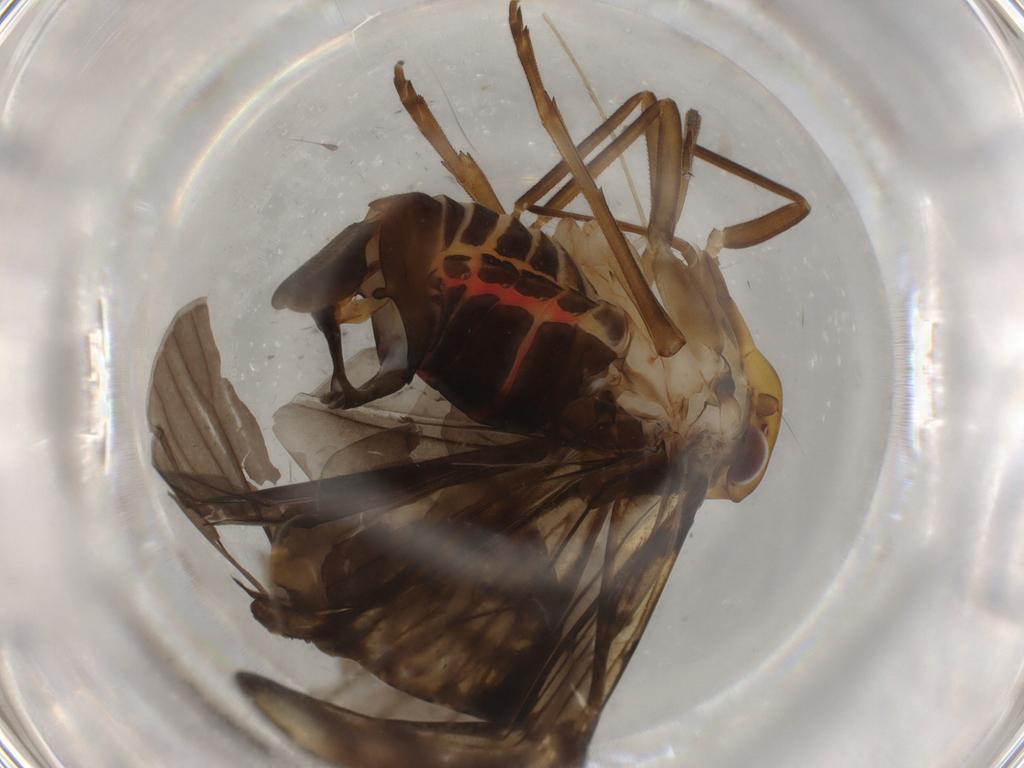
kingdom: Animalia
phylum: Arthropoda
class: Insecta
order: Hemiptera
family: Cixiidae
